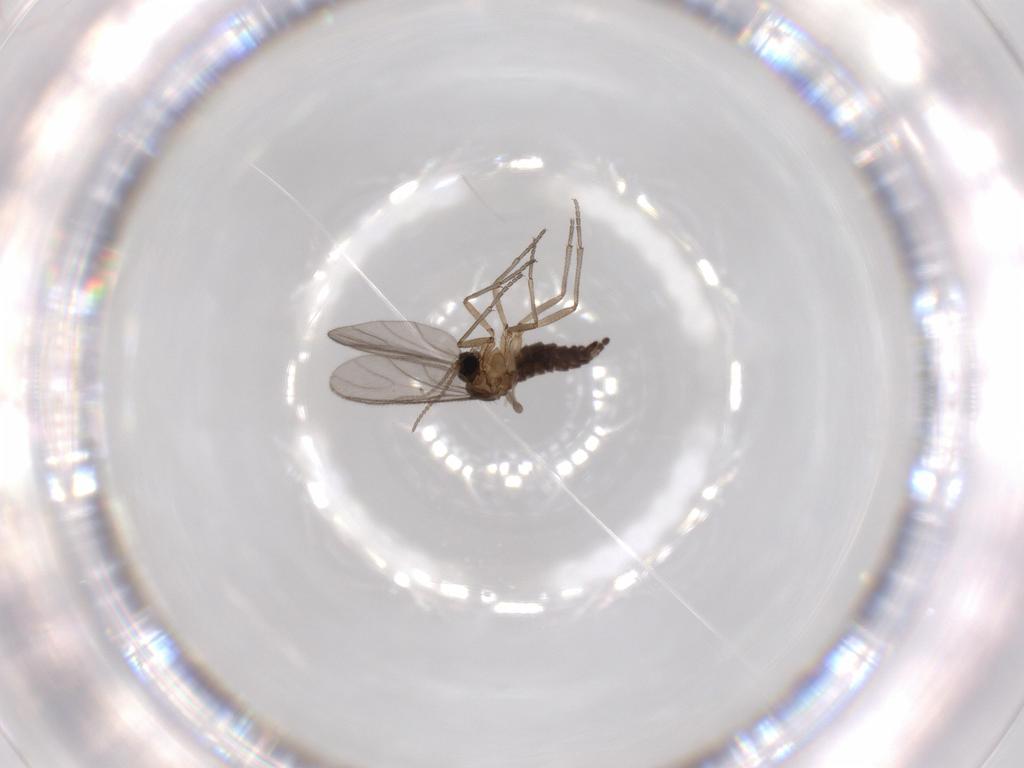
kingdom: Animalia
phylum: Arthropoda
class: Insecta
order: Diptera
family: Sciaridae
